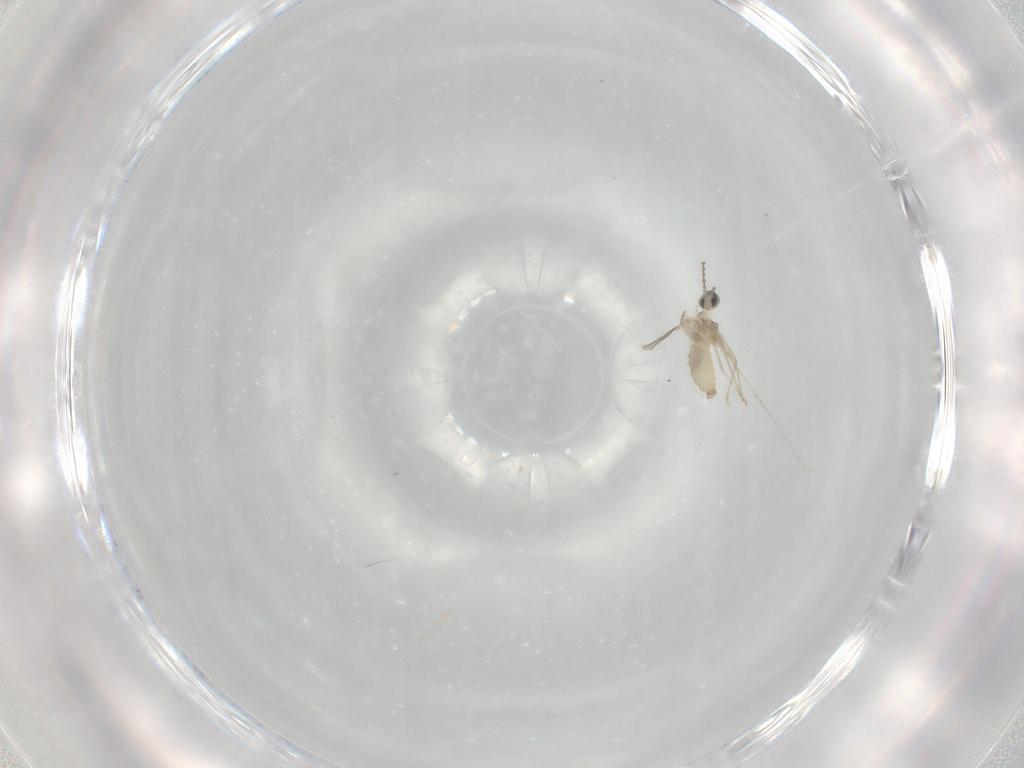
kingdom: Animalia
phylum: Arthropoda
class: Insecta
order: Diptera
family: Cecidomyiidae
